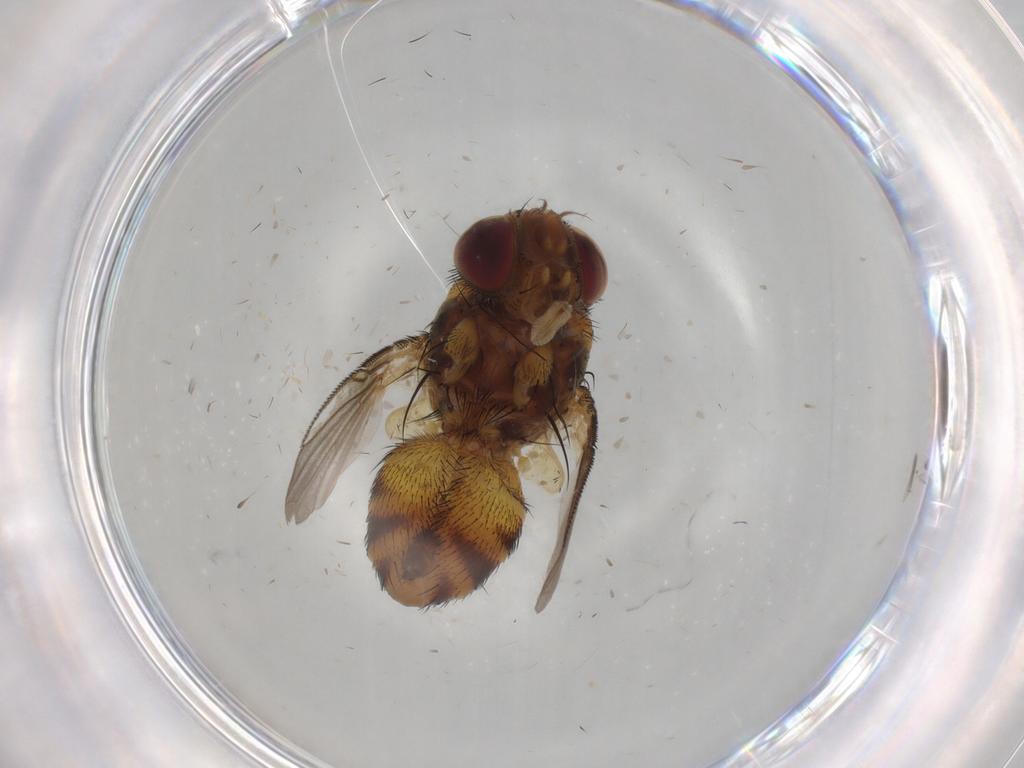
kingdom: Animalia
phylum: Arthropoda
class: Insecta
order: Diptera
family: Tachinidae
